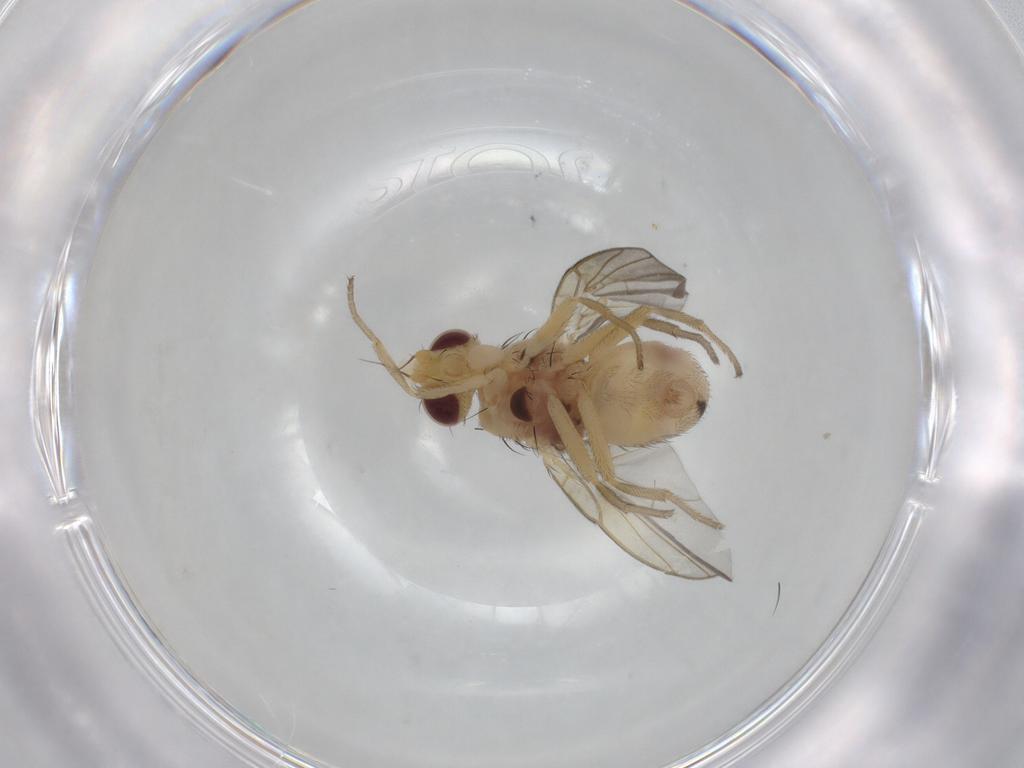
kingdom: Animalia
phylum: Arthropoda
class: Insecta
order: Diptera
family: Agromyzidae
